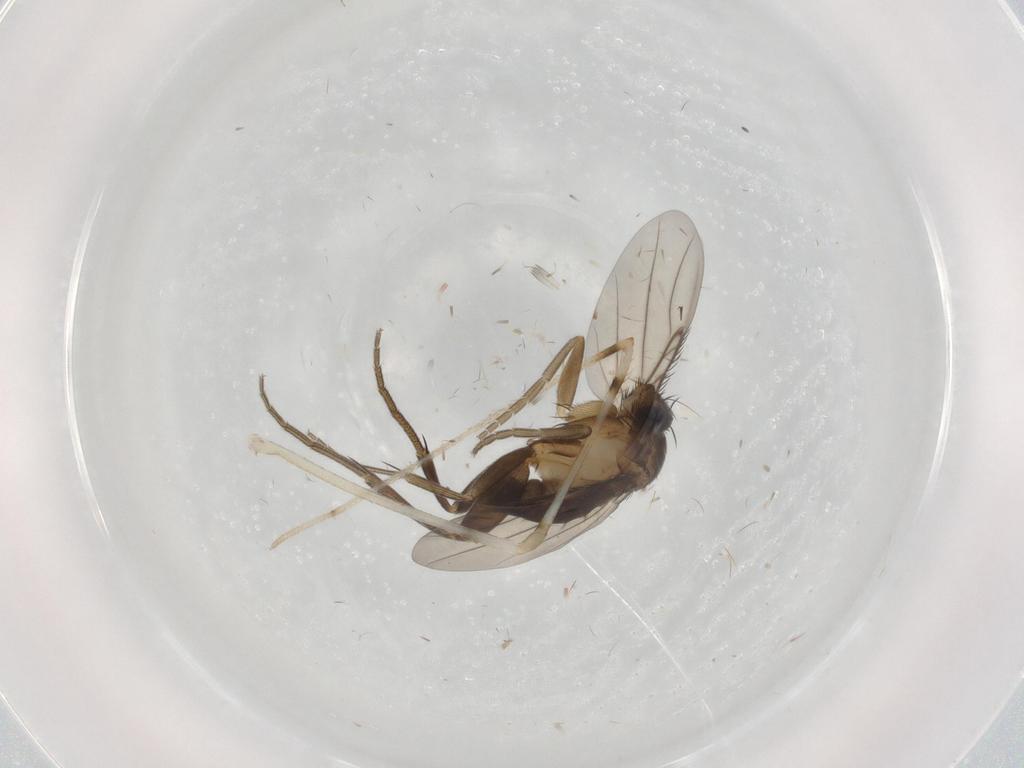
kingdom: Animalia
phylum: Arthropoda
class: Insecta
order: Diptera
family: Phoridae
